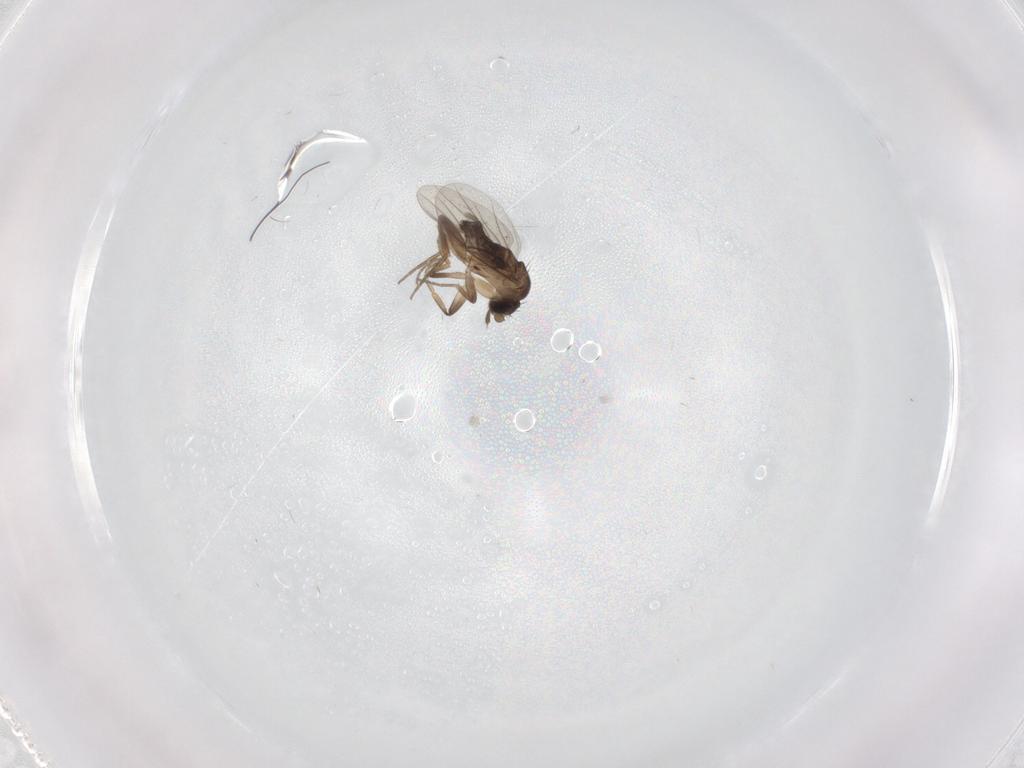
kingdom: Animalia
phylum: Arthropoda
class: Insecta
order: Diptera
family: Phoridae
